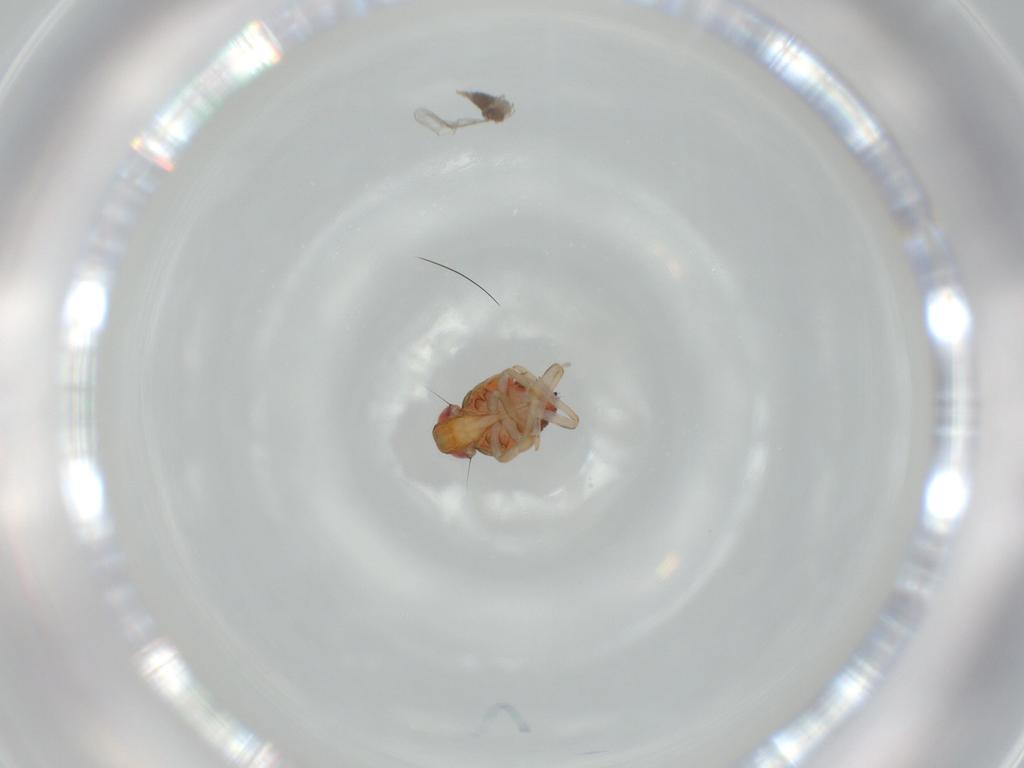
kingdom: Animalia
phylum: Arthropoda
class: Insecta
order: Hemiptera
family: Issidae
